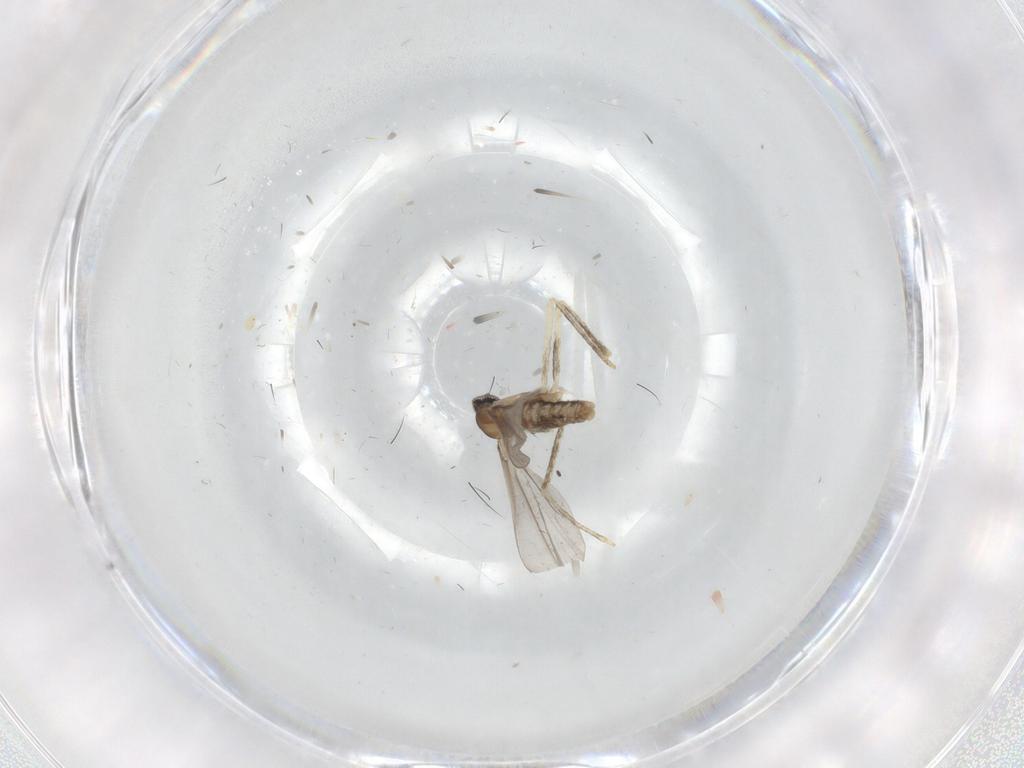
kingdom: Animalia
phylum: Arthropoda
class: Insecta
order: Diptera
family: Cecidomyiidae
